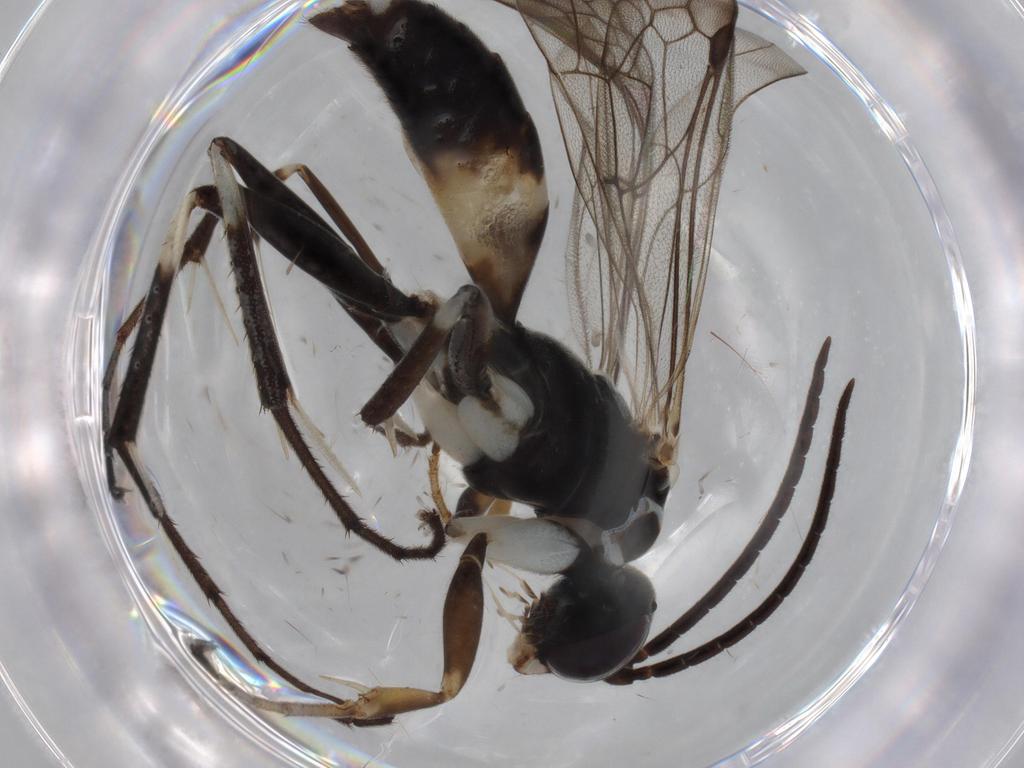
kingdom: Animalia
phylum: Arthropoda
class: Insecta
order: Hymenoptera
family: Pompilidae
